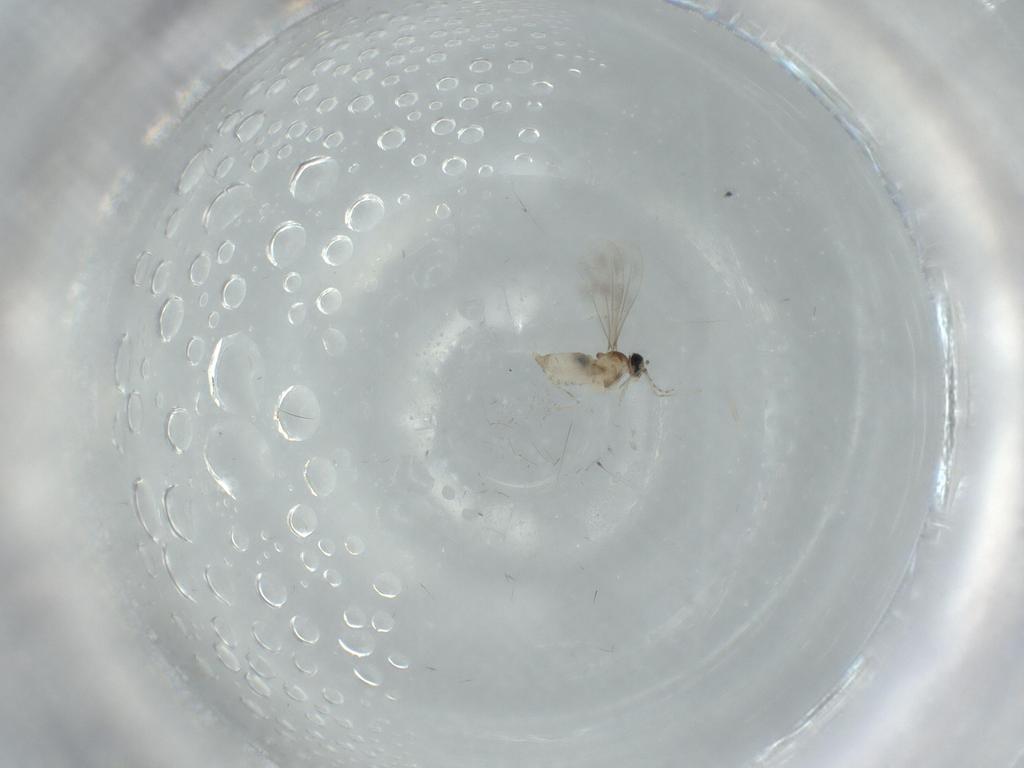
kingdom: Animalia
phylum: Arthropoda
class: Insecta
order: Diptera
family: Cecidomyiidae
